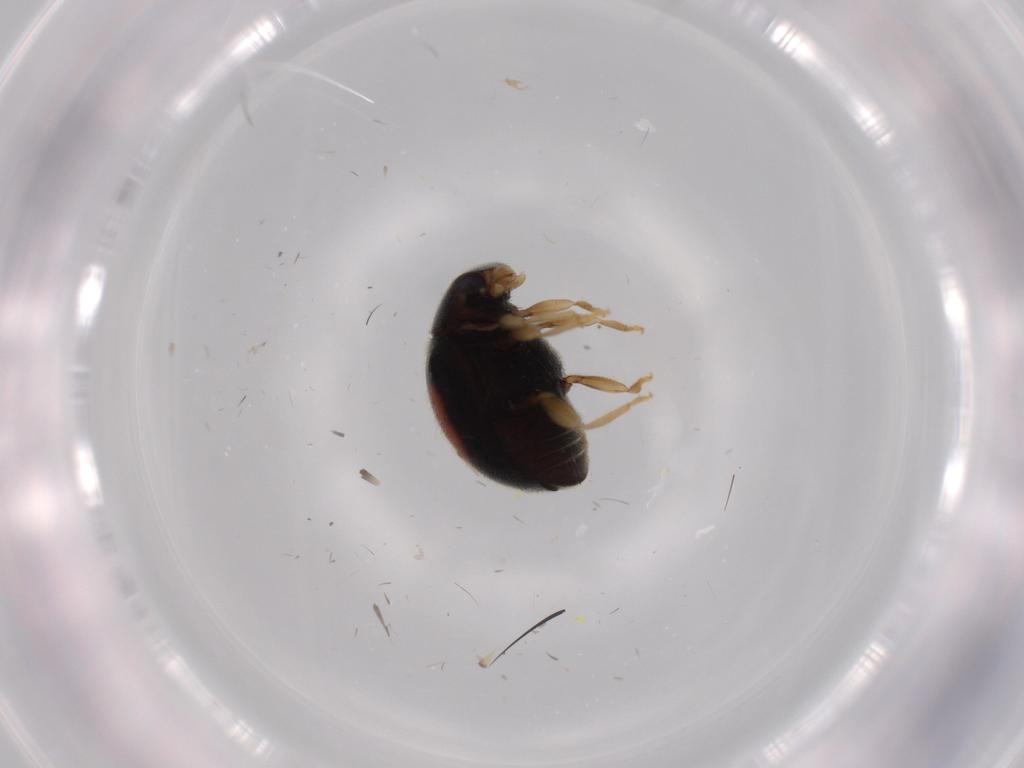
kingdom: Animalia
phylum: Arthropoda
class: Insecta
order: Coleoptera
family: Coccinellidae
